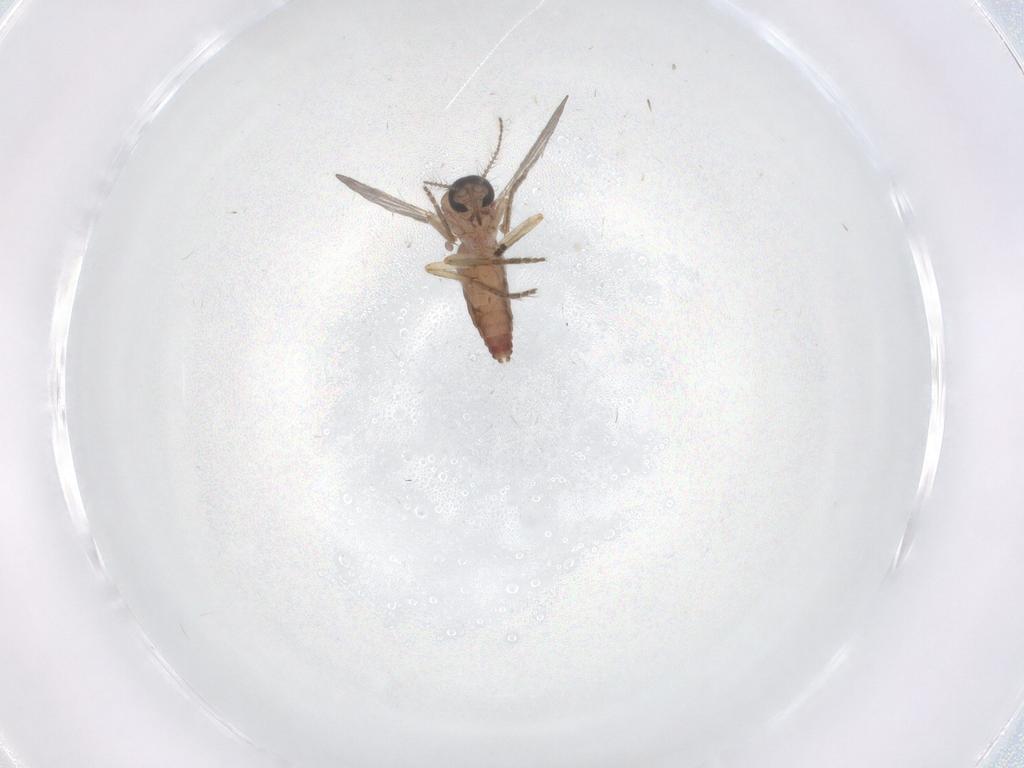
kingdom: Animalia
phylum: Arthropoda
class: Insecta
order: Diptera
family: Ceratopogonidae
